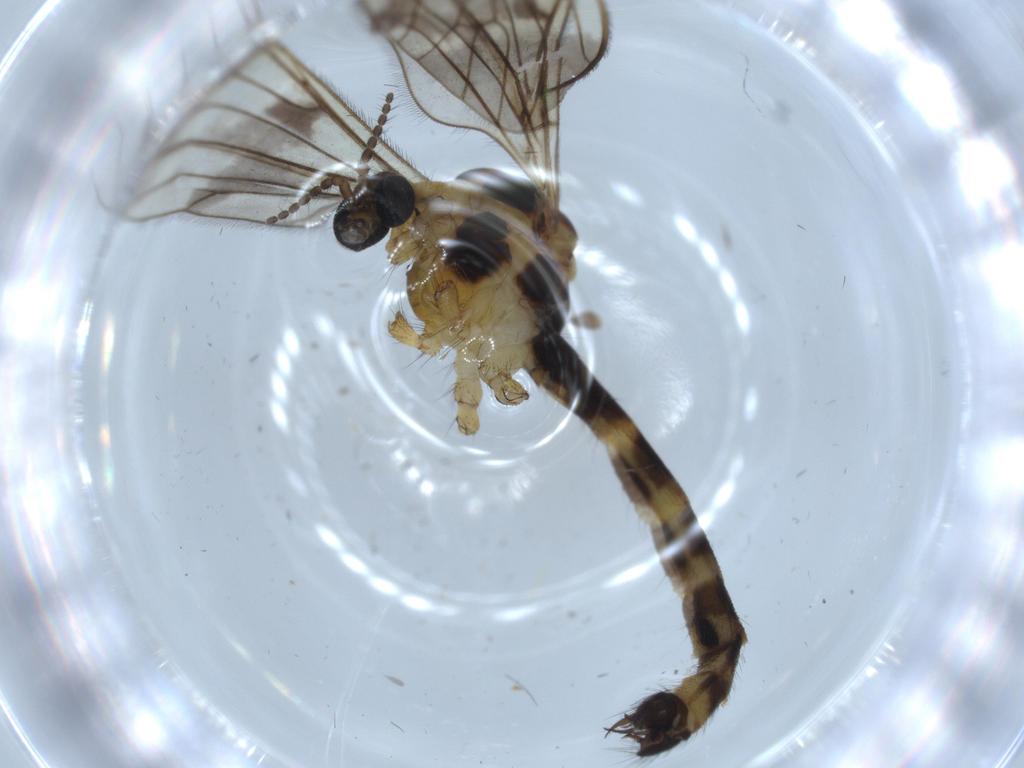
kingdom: Animalia
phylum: Arthropoda
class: Insecta
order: Diptera
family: Limoniidae
